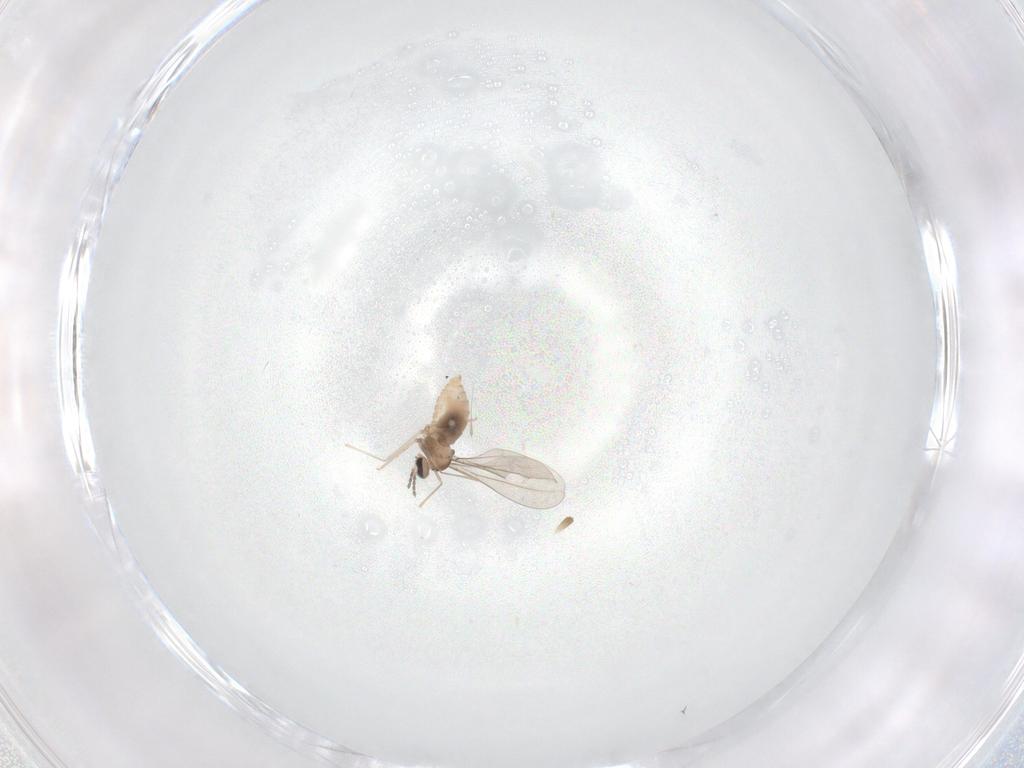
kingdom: Animalia
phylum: Arthropoda
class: Insecta
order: Diptera
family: Cecidomyiidae
